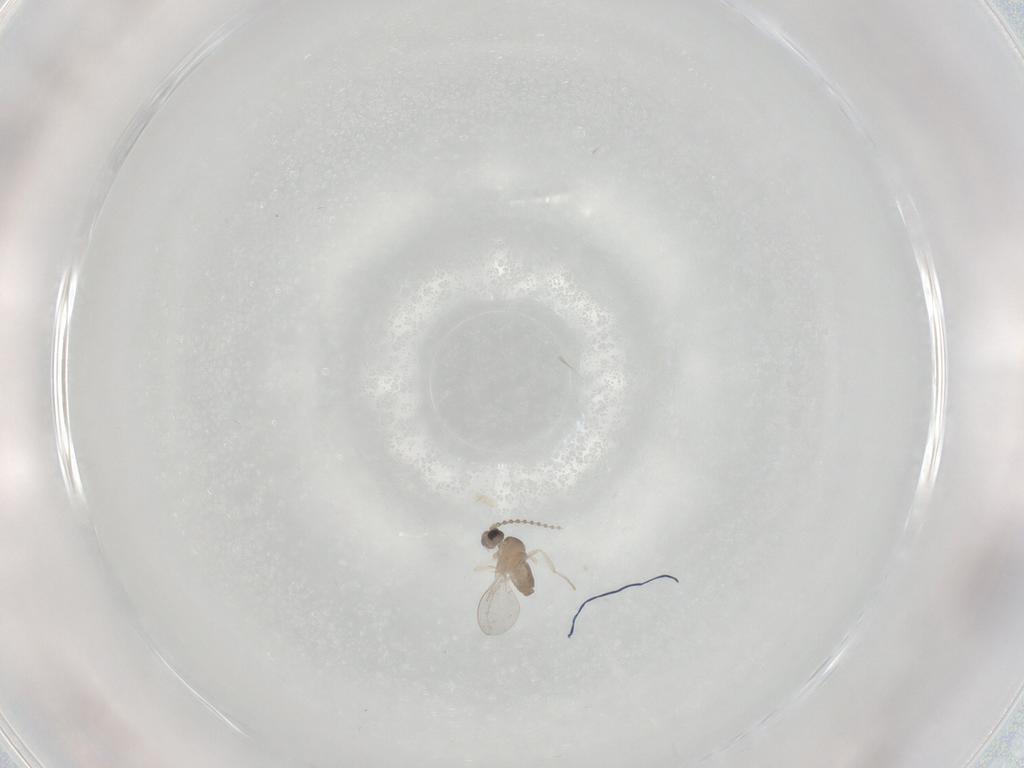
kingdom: Animalia
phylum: Arthropoda
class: Insecta
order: Diptera
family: Cecidomyiidae
